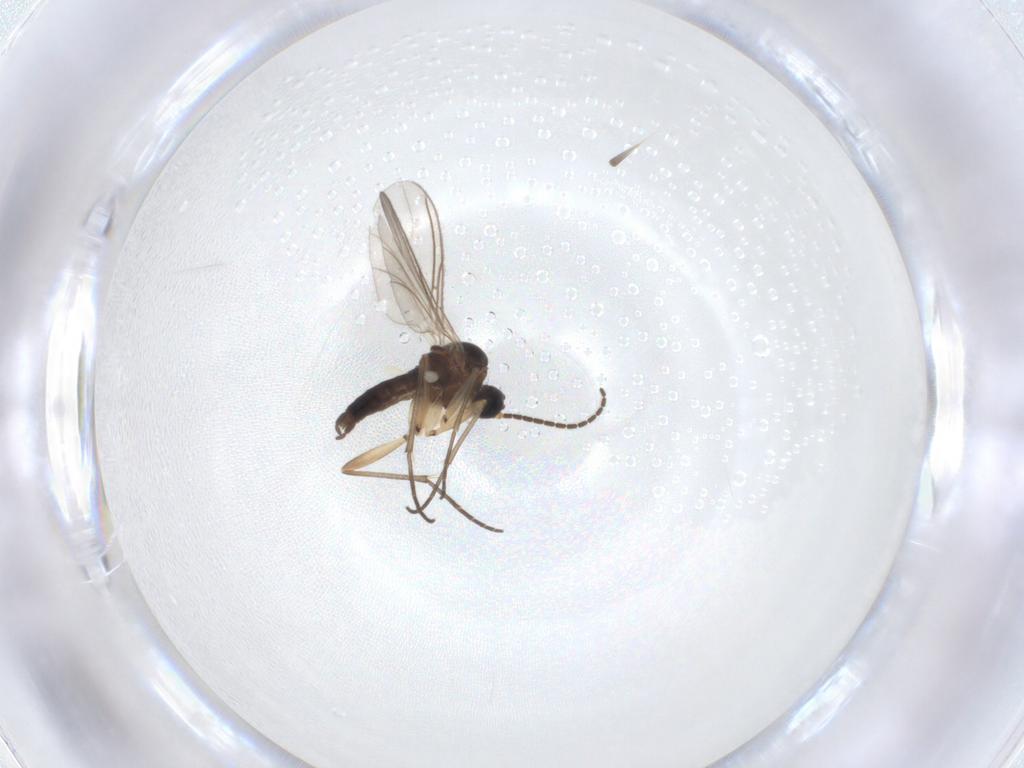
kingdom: Animalia
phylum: Arthropoda
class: Insecta
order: Diptera
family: Sciaridae
